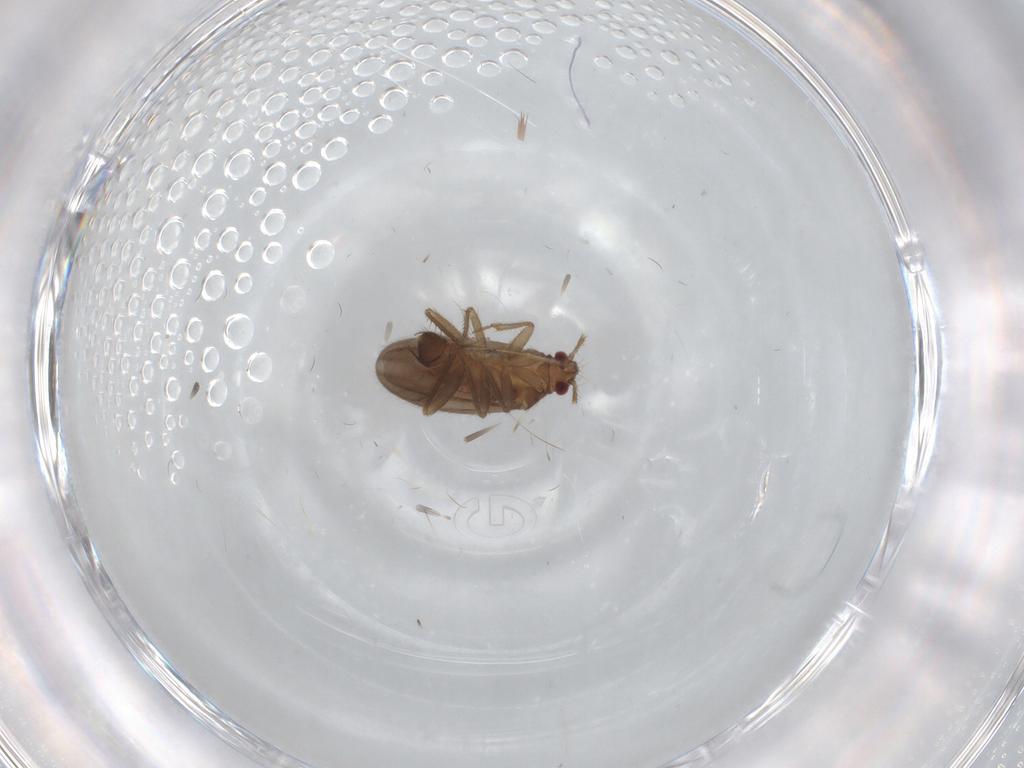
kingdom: Animalia
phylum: Arthropoda
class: Insecta
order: Hemiptera
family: Ceratocombidae
